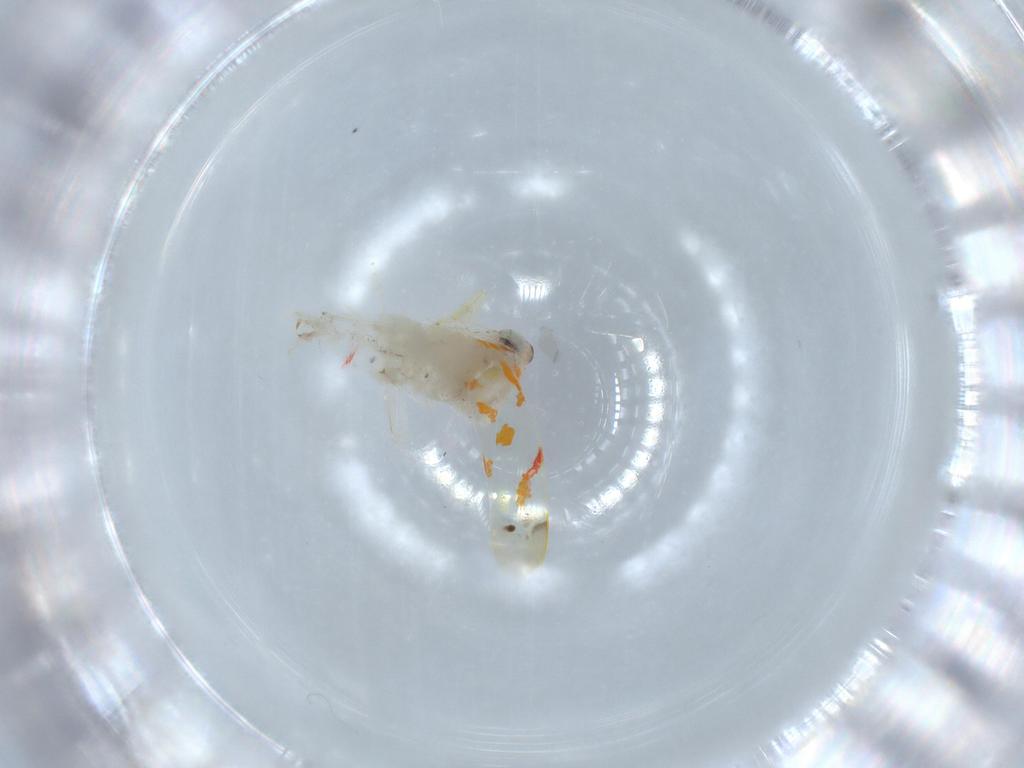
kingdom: Animalia
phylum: Arthropoda
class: Insecta
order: Hemiptera
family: Cicadellidae
